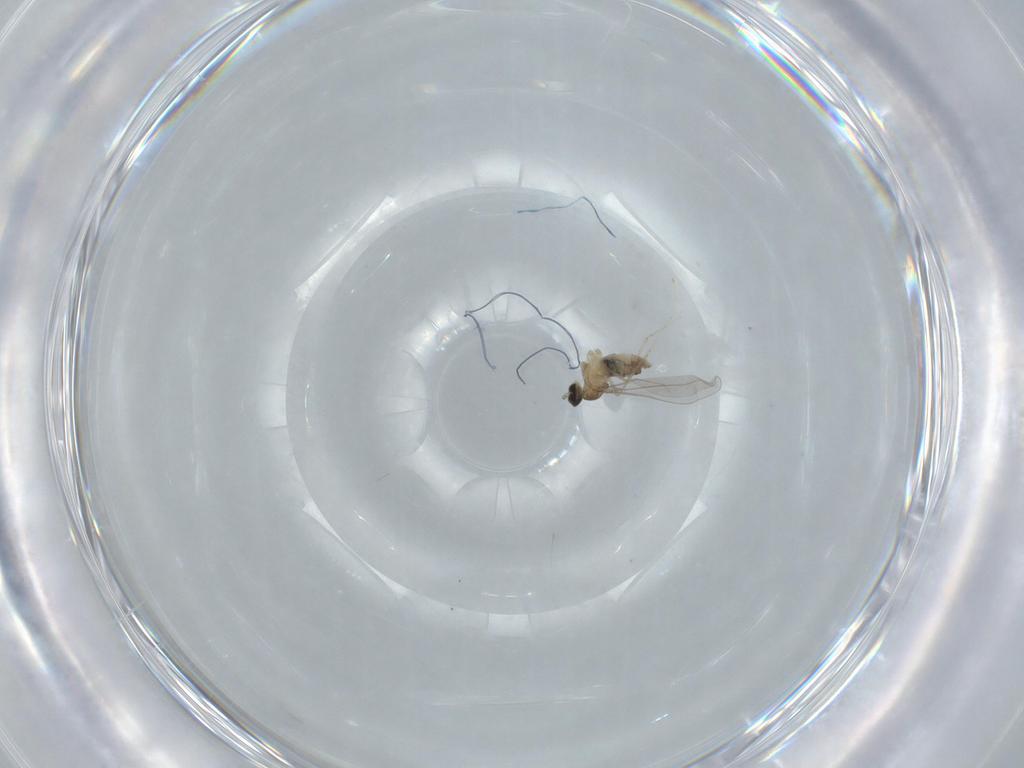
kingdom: Animalia
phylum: Arthropoda
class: Insecta
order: Diptera
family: Cecidomyiidae
